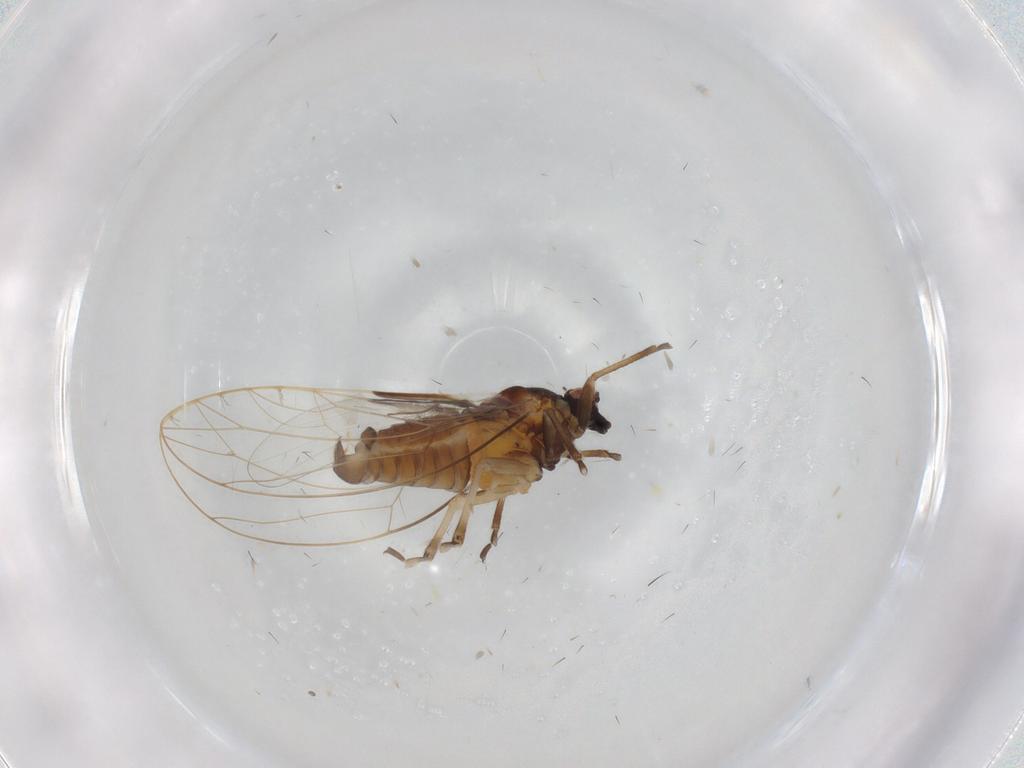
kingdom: Animalia
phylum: Arthropoda
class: Insecta
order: Hemiptera
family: Triozidae
